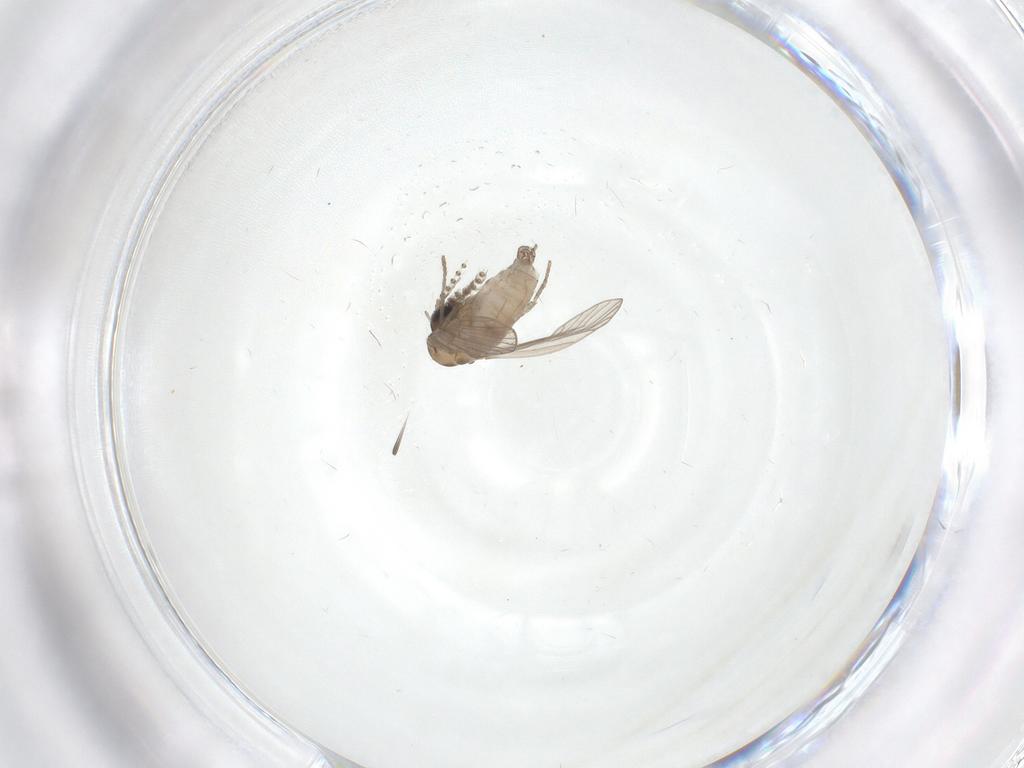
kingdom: Animalia
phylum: Arthropoda
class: Insecta
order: Diptera
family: Psychodidae
